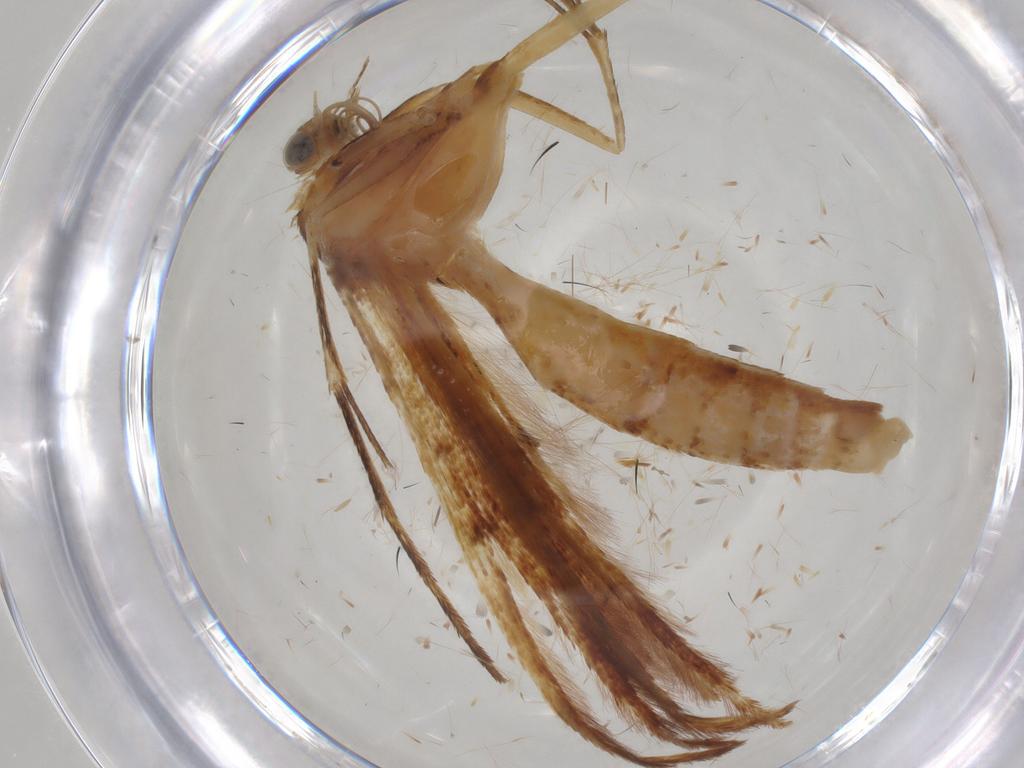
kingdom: Animalia
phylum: Arthropoda
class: Insecta
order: Lepidoptera
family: Pterophoridae
